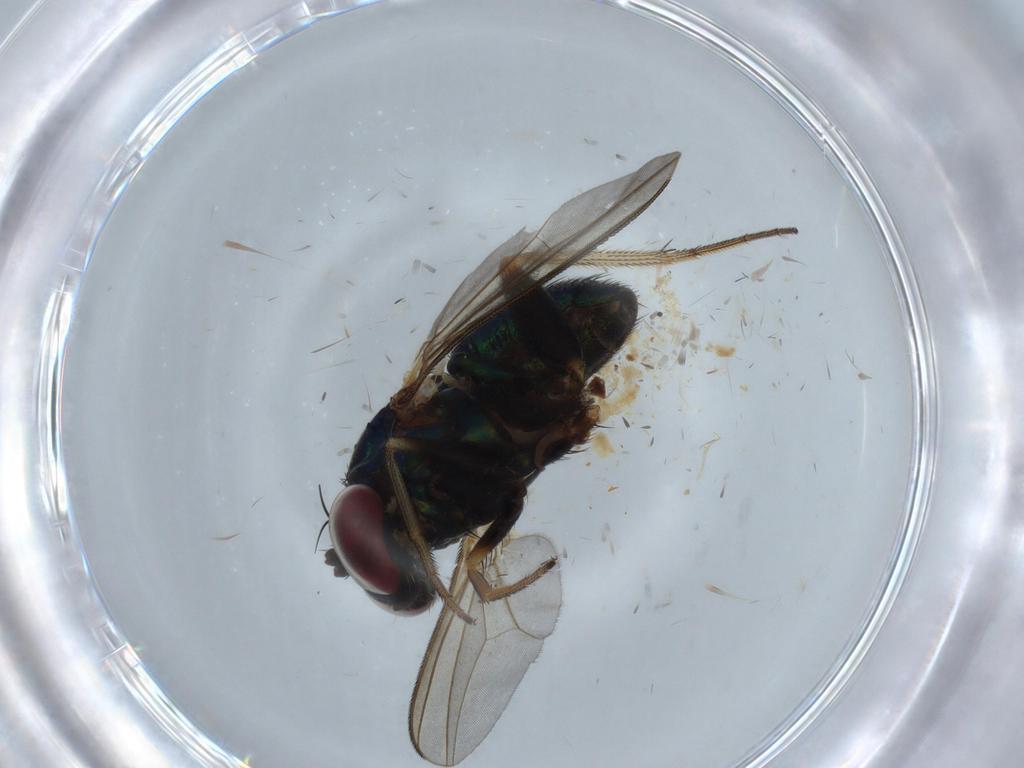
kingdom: Animalia
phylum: Arthropoda
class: Insecta
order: Diptera
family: Dolichopodidae
